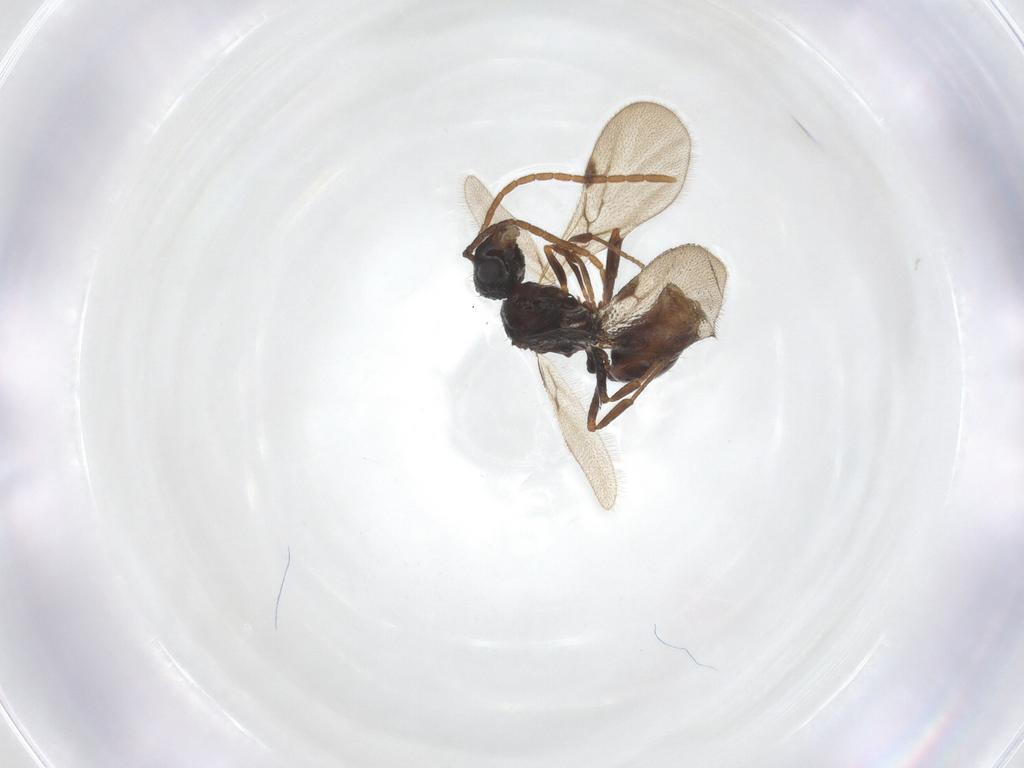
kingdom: Animalia
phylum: Arthropoda
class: Insecta
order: Hymenoptera
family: Formicidae
